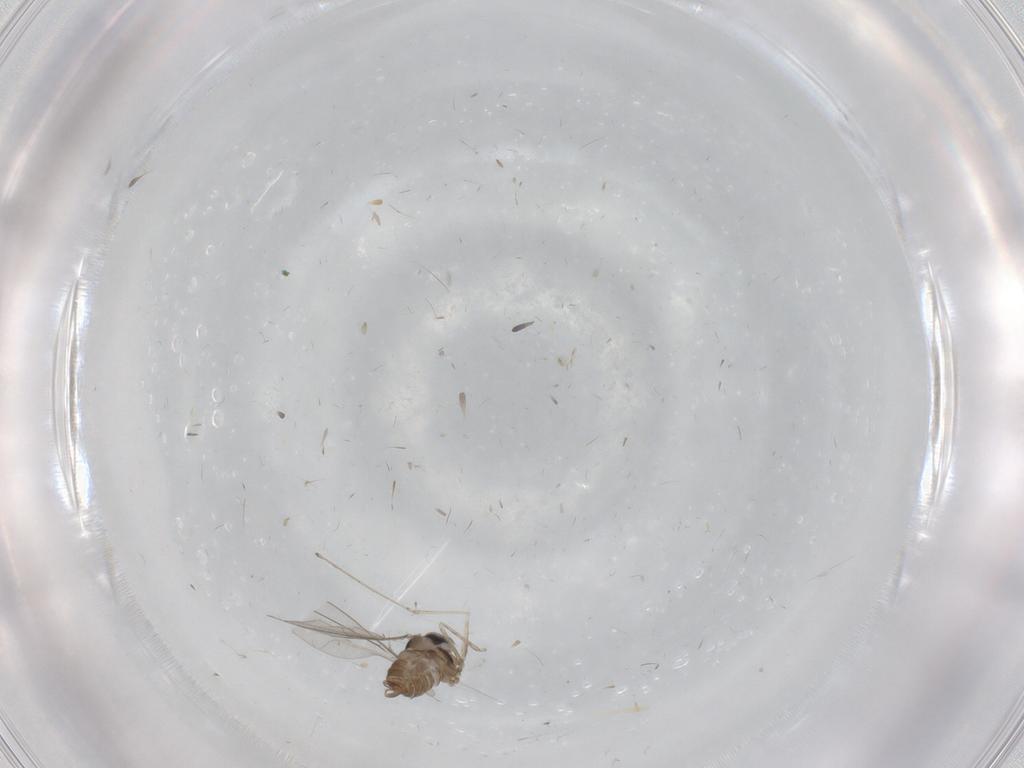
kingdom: Animalia
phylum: Arthropoda
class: Insecta
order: Diptera
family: Cecidomyiidae
